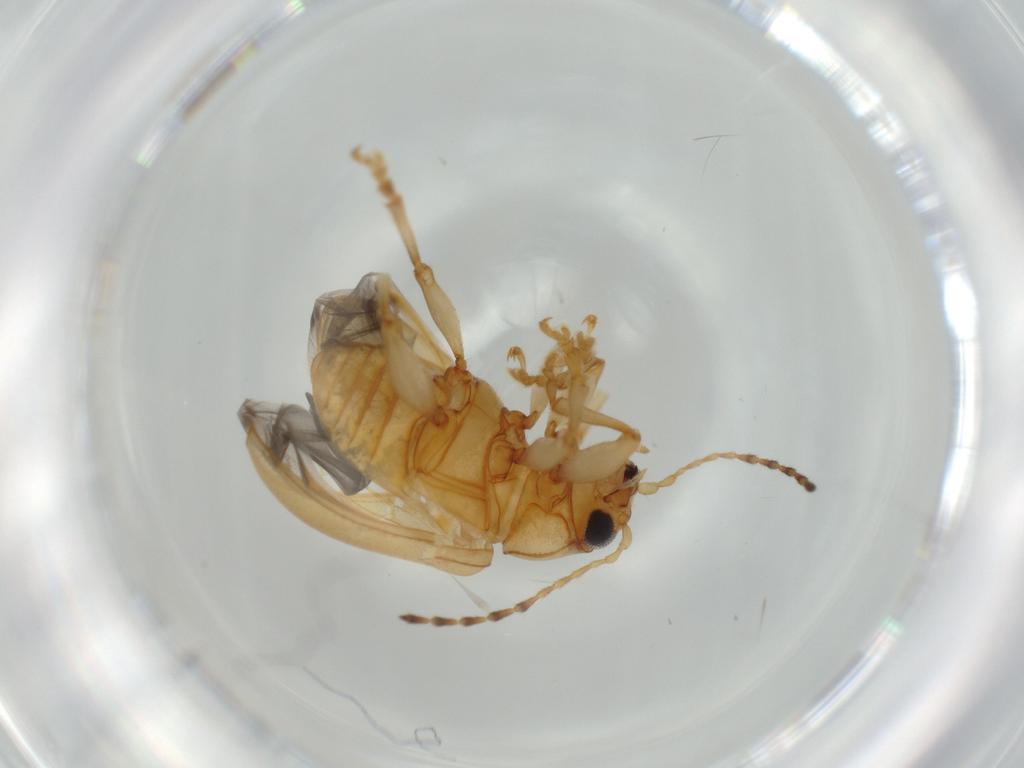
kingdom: Animalia
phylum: Arthropoda
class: Insecta
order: Coleoptera
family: Chrysomelidae
